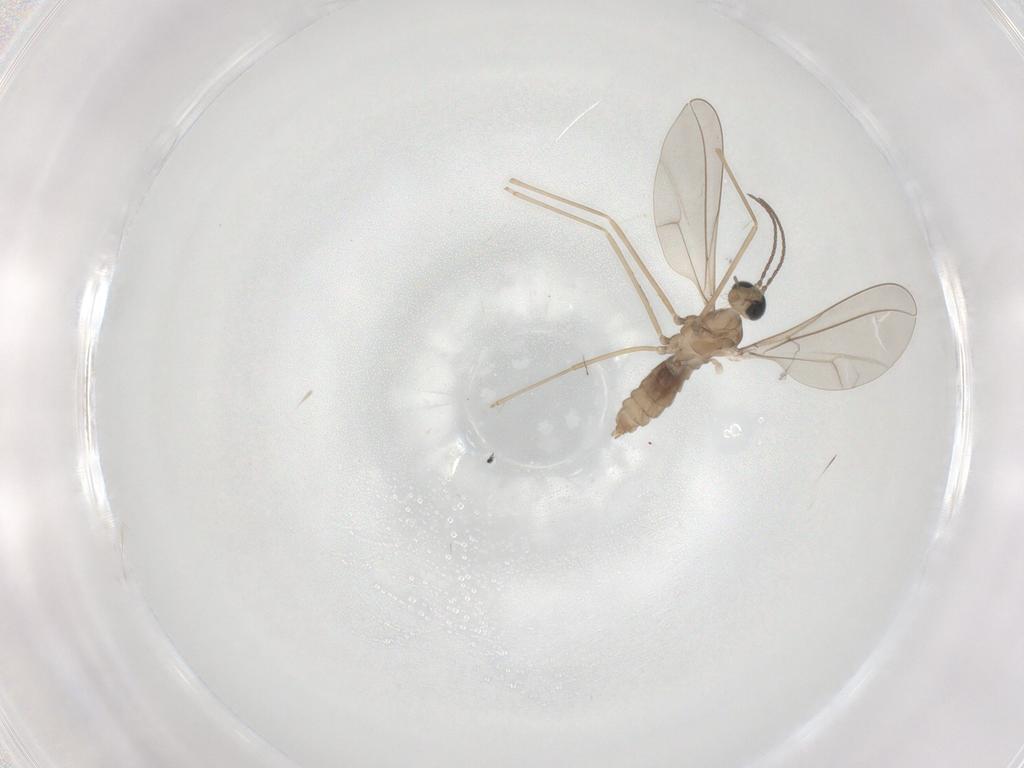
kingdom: Animalia
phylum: Arthropoda
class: Insecta
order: Diptera
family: Cecidomyiidae
